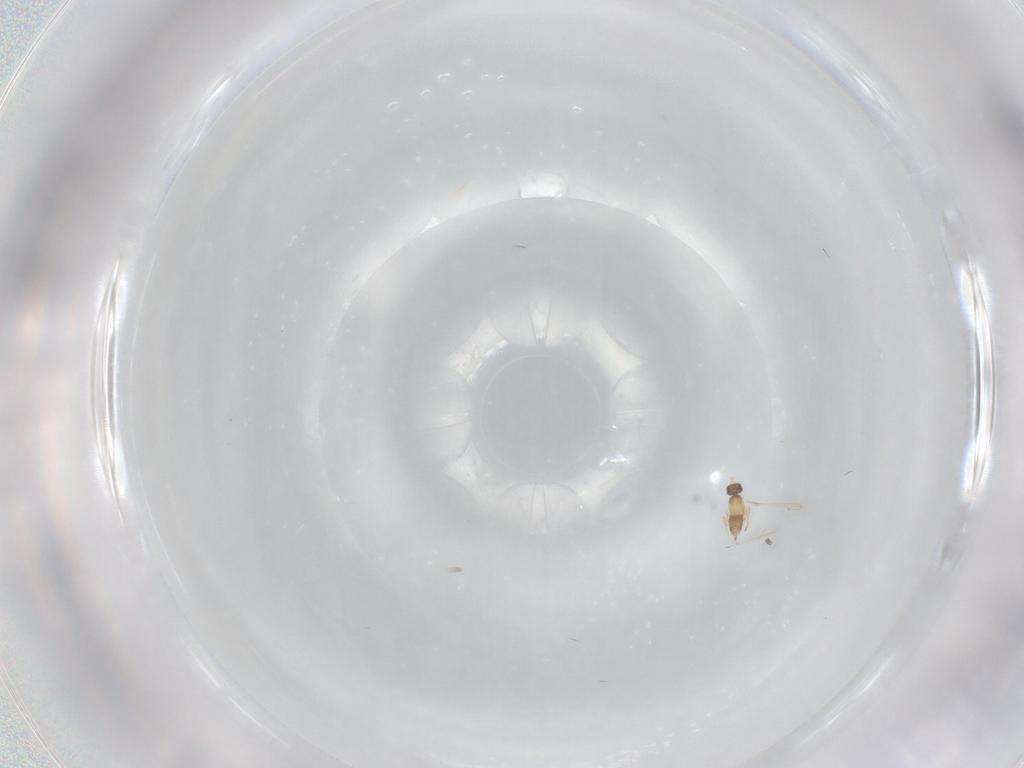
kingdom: Animalia
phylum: Arthropoda
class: Insecta
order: Hymenoptera
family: Mymaridae
